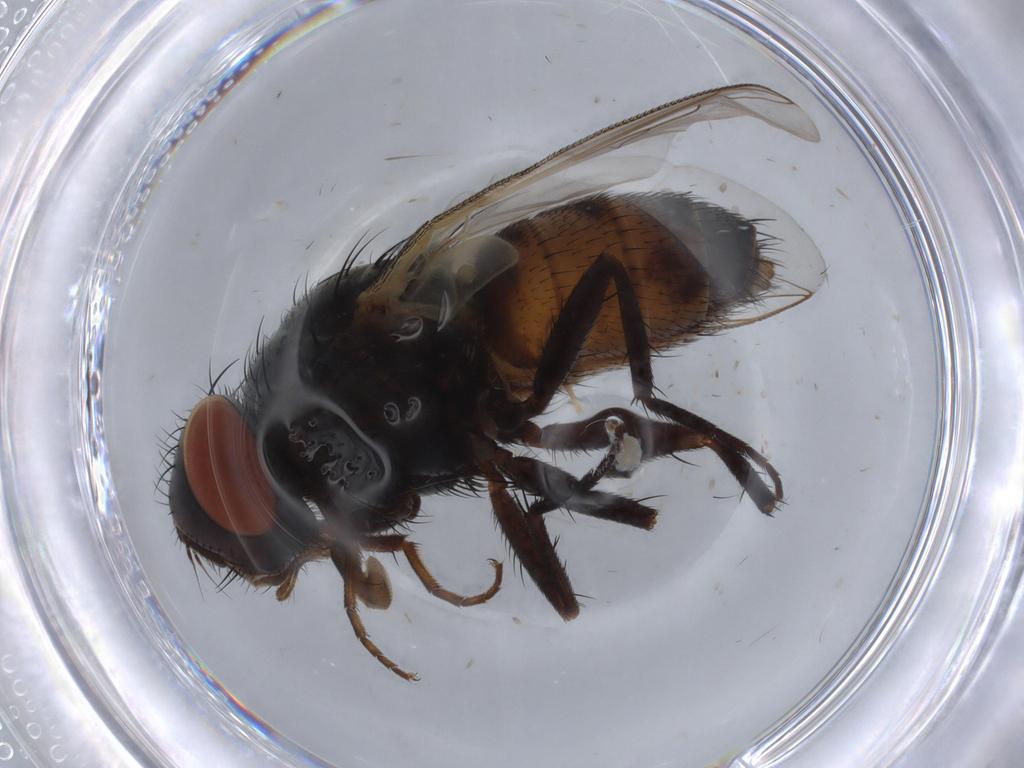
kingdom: Animalia
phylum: Arthropoda
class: Insecta
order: Diptera
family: Sarcophagidae
